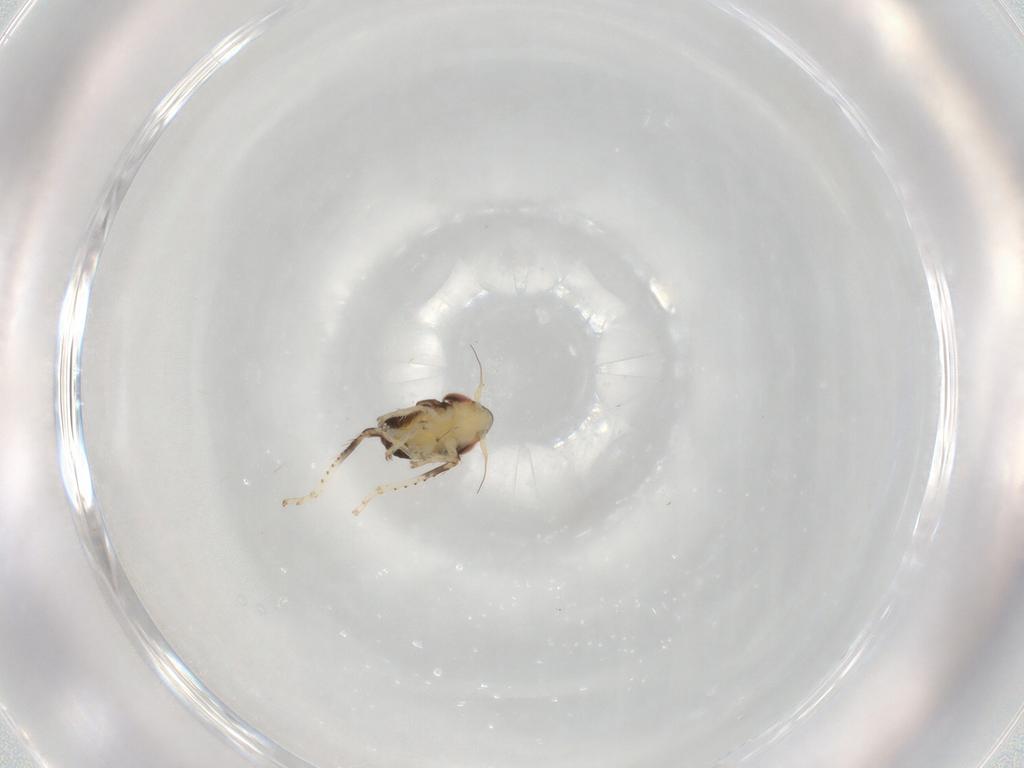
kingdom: Animalia
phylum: Arthropoda
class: Insecta
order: Hemiptera
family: Cicadellidae
